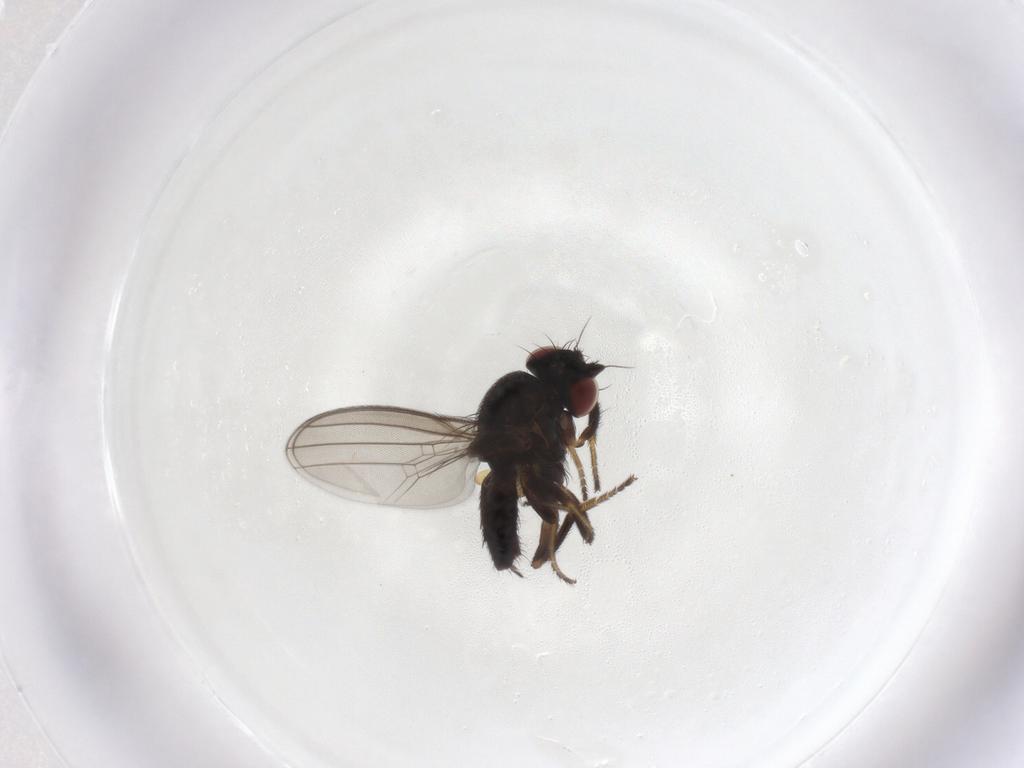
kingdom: Animalia
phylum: Arthropoda
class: Insecta
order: Diptera
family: Milichiidae
